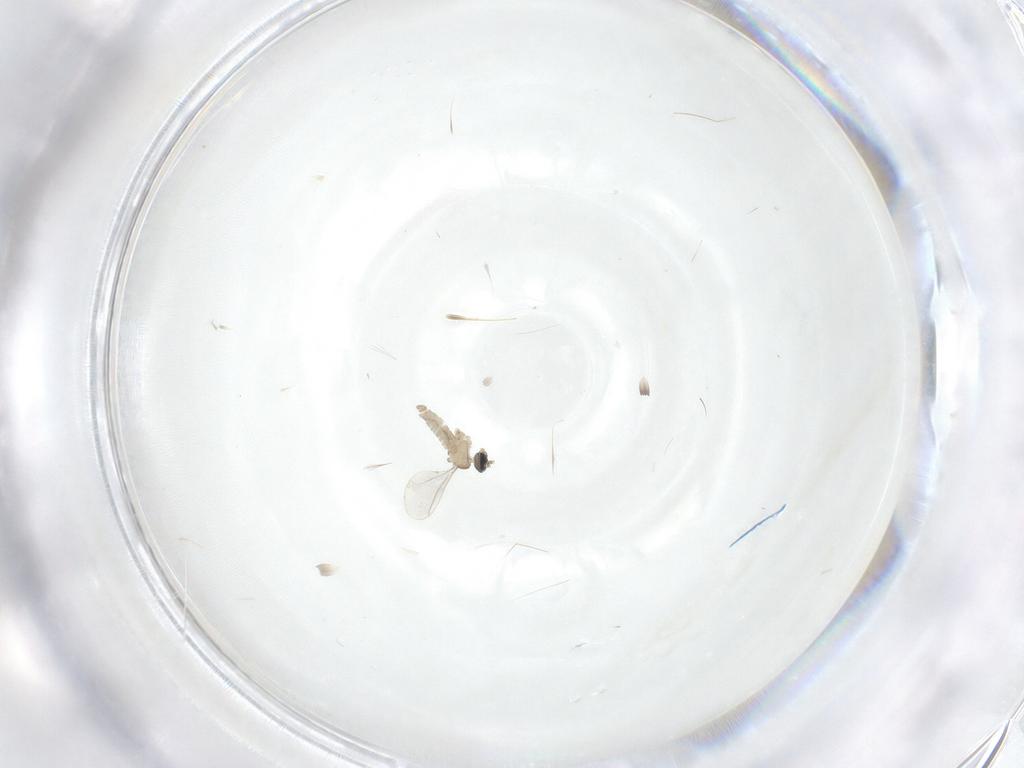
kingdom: Animalia
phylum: Arthropoda
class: Insecta
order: Diptera
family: Cecidomyiidae
